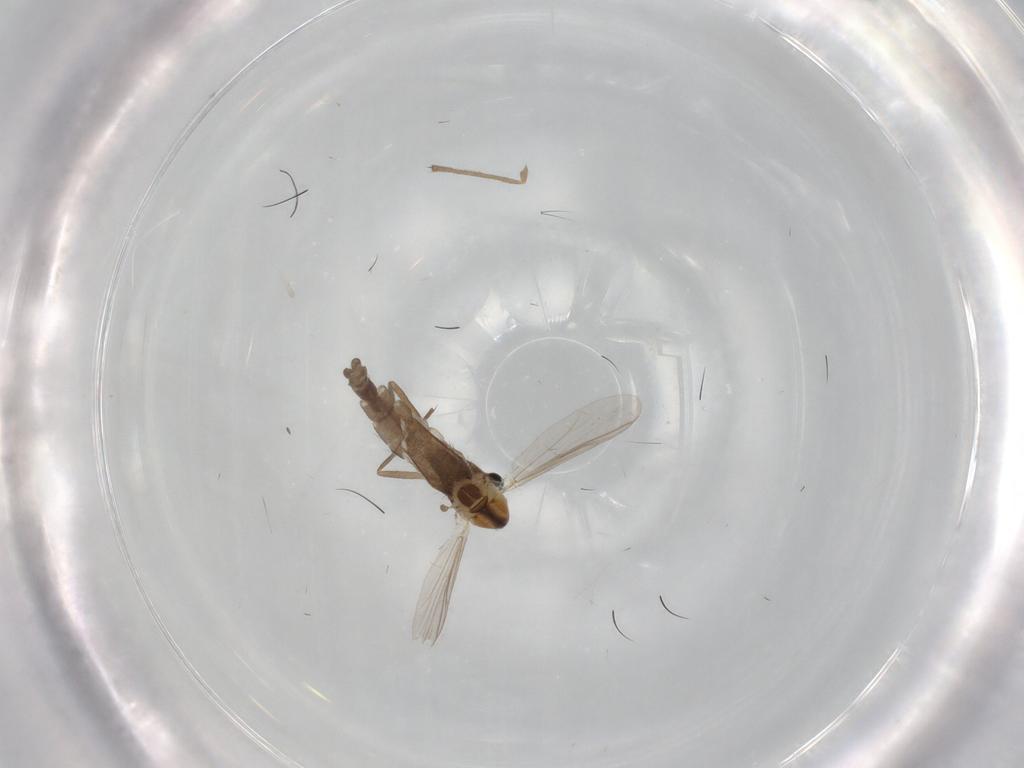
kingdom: Animalia
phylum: Arthropoda
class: Insecta
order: Diptera
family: Chironomidae
